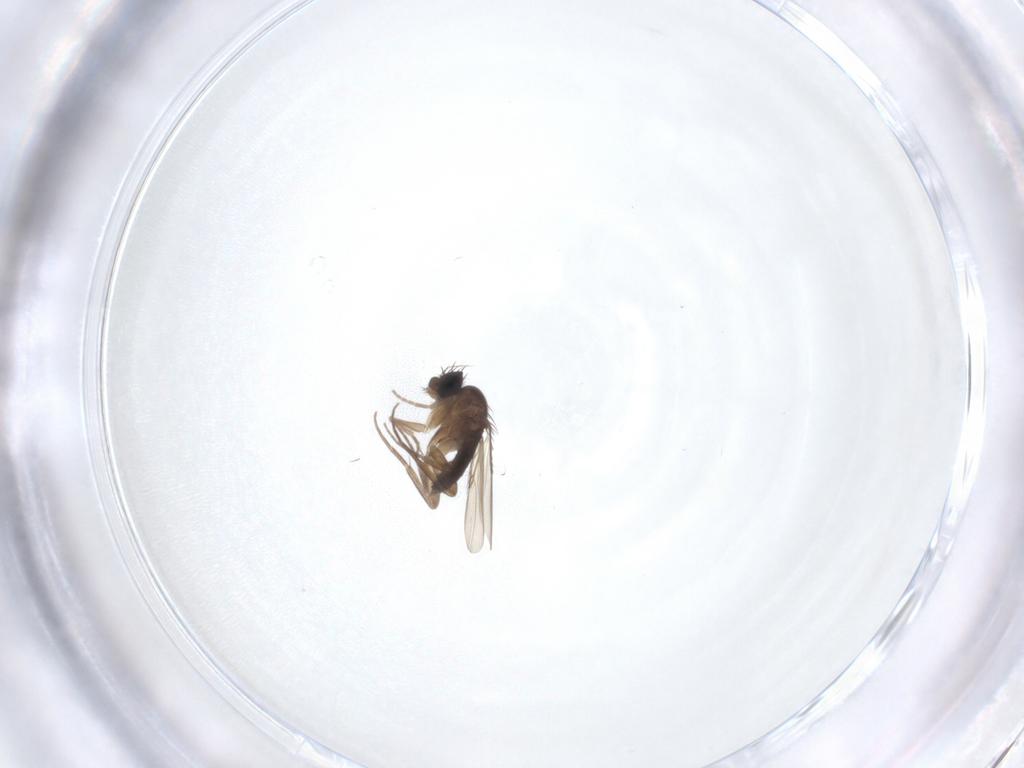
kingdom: Animalia
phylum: Arthropoda
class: Insecta
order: Diptera
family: Phoridae
